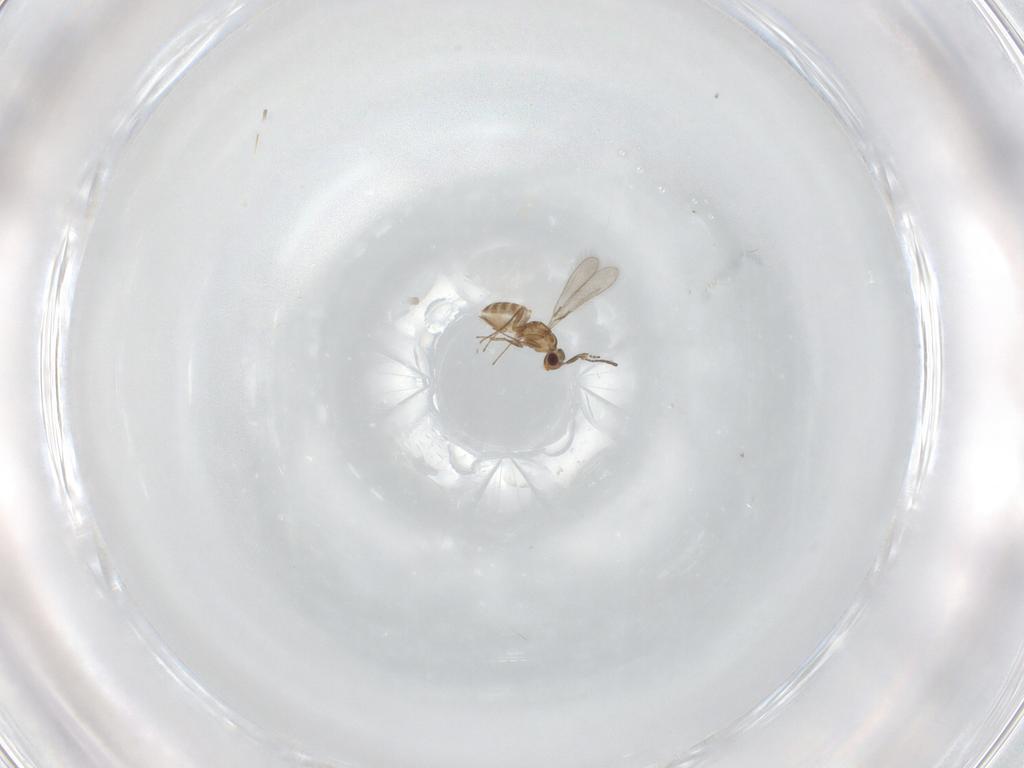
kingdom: Animalia
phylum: Arthropoda
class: Insecta
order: Hymenoptera
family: Mymaridae
